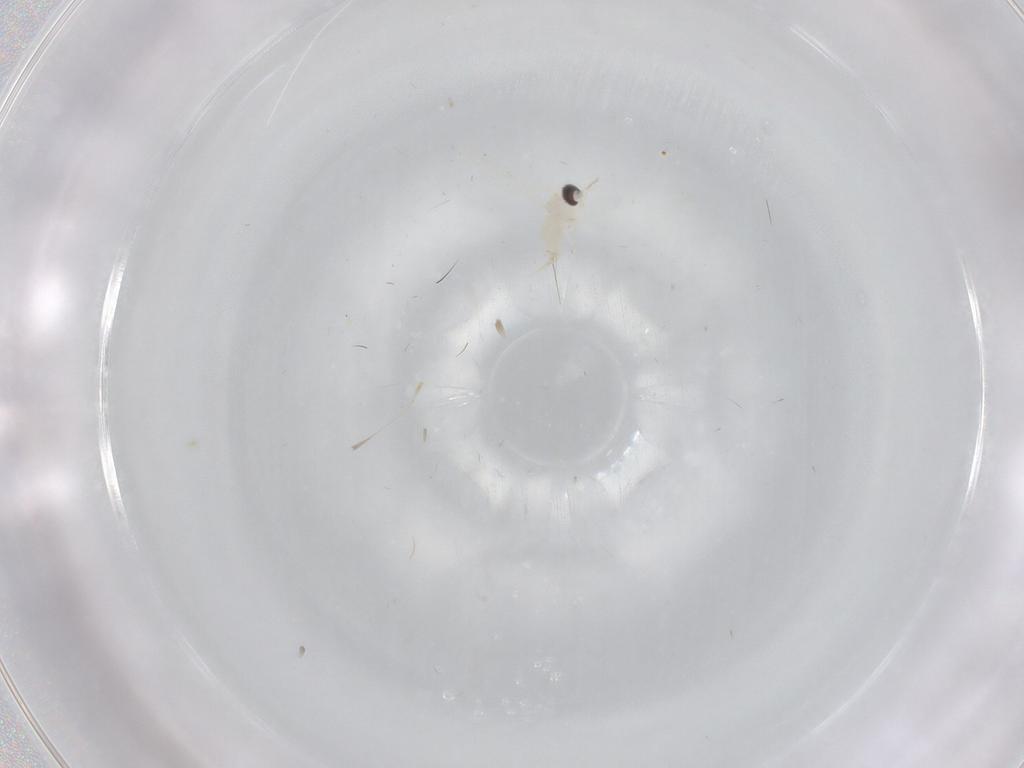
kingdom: Animalia
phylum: Arthropoda
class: Insecta
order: Diptera
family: Cecidomyiidae
